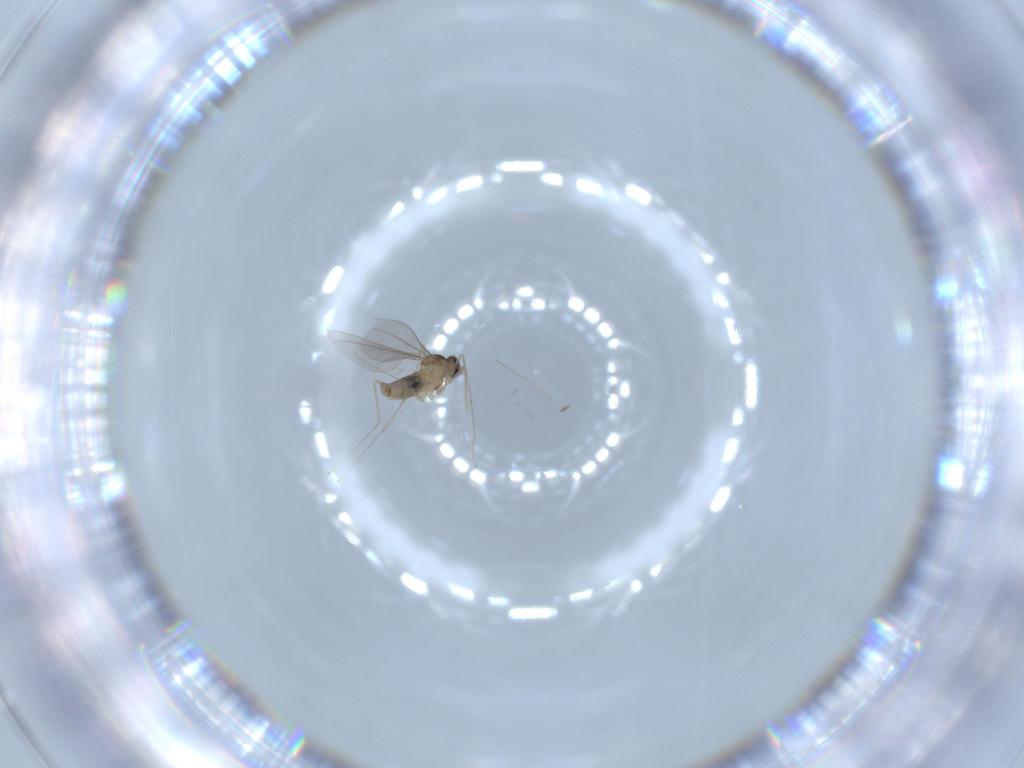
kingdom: Animalia
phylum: Arthropoda
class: Insecta
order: Diptera
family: Cecidomyiidae
